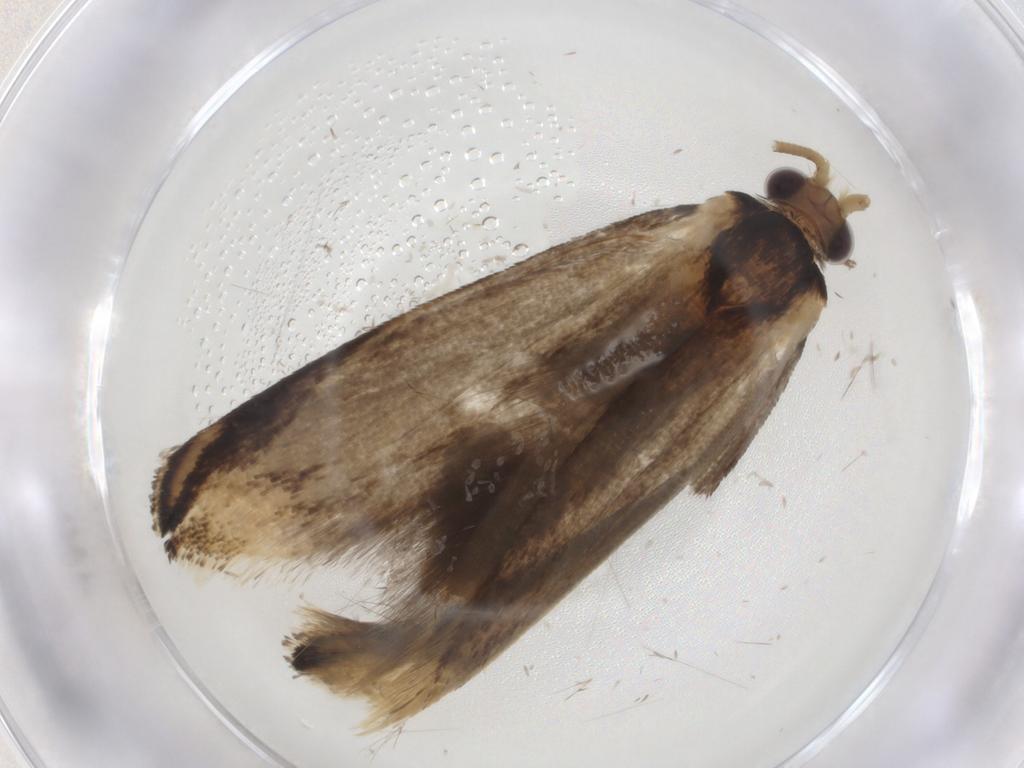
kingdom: Animalia
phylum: Arthropoda
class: Insecta
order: Lepidoptera
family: Tineidae
